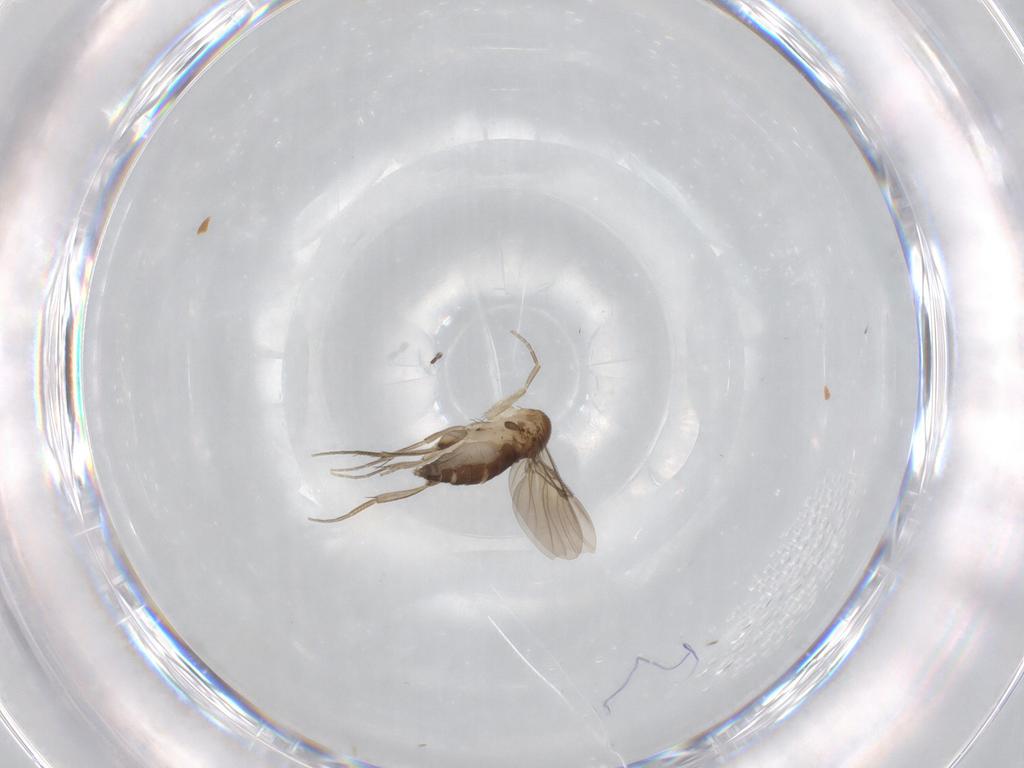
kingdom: Animalia
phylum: Arthropoda
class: Insecta
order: Diptera
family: Phoridae
